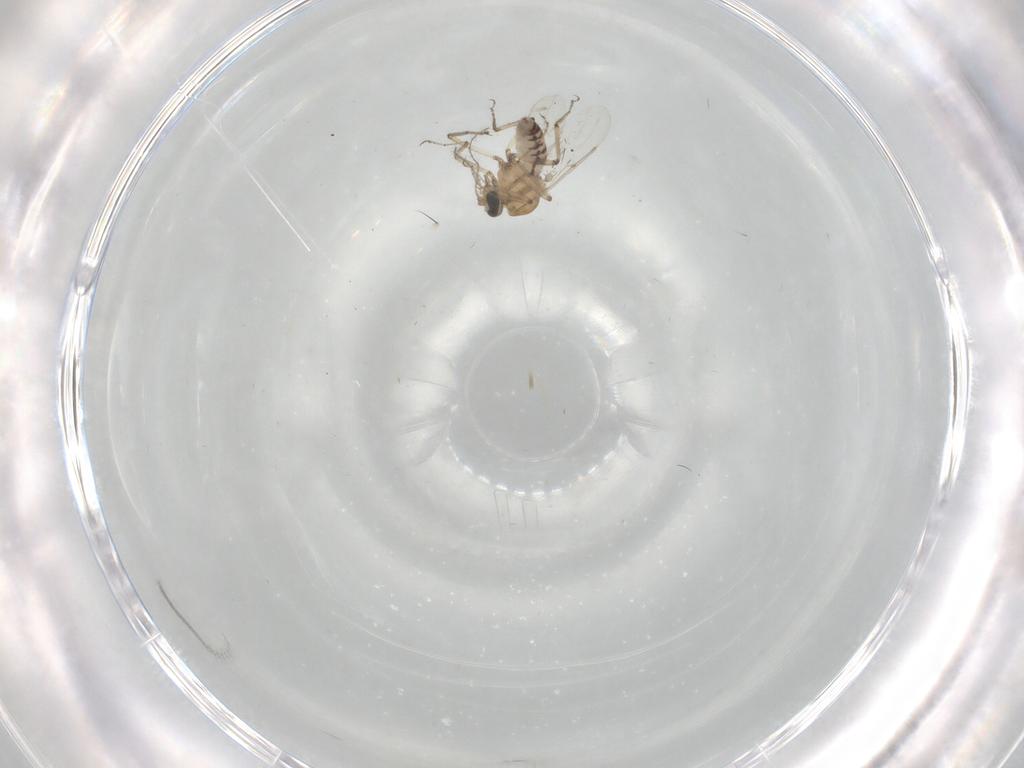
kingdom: Animalia
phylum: Arthropoda
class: Insecta
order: Diptera
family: Ceratopogonidae
